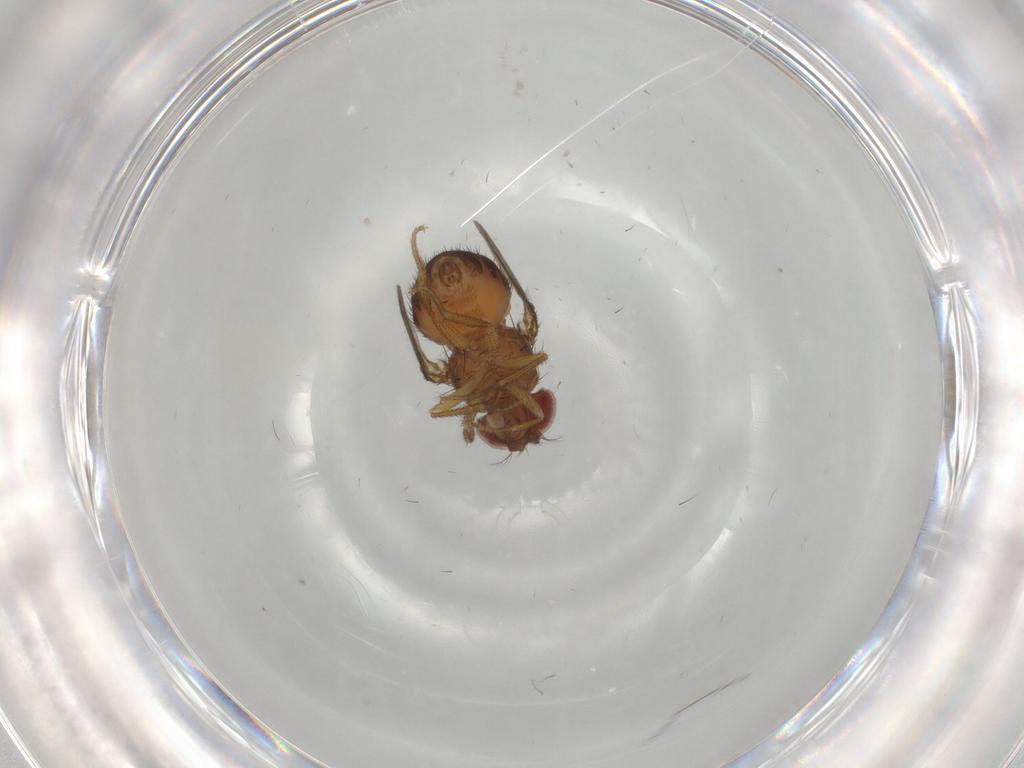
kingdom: Animalia
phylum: Arthropoda
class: Insecta
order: Diptera
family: Drosophilidae
